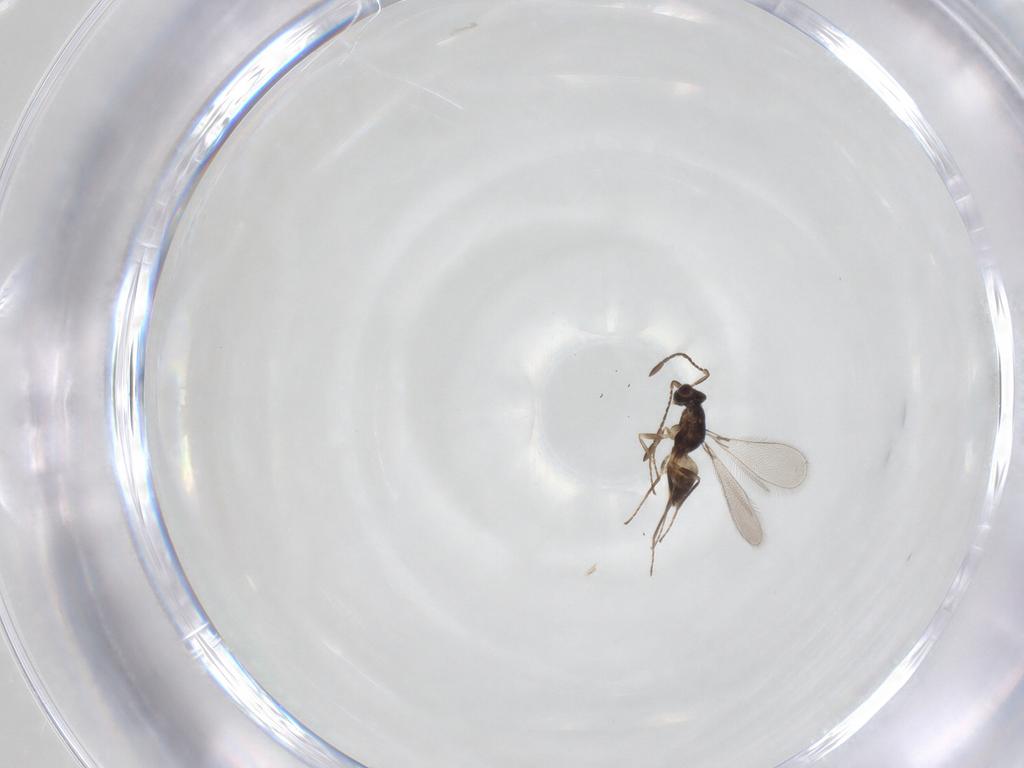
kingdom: Animalia
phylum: Arthropoda
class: Insecta
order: Hymenoptera
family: Mymaridae
